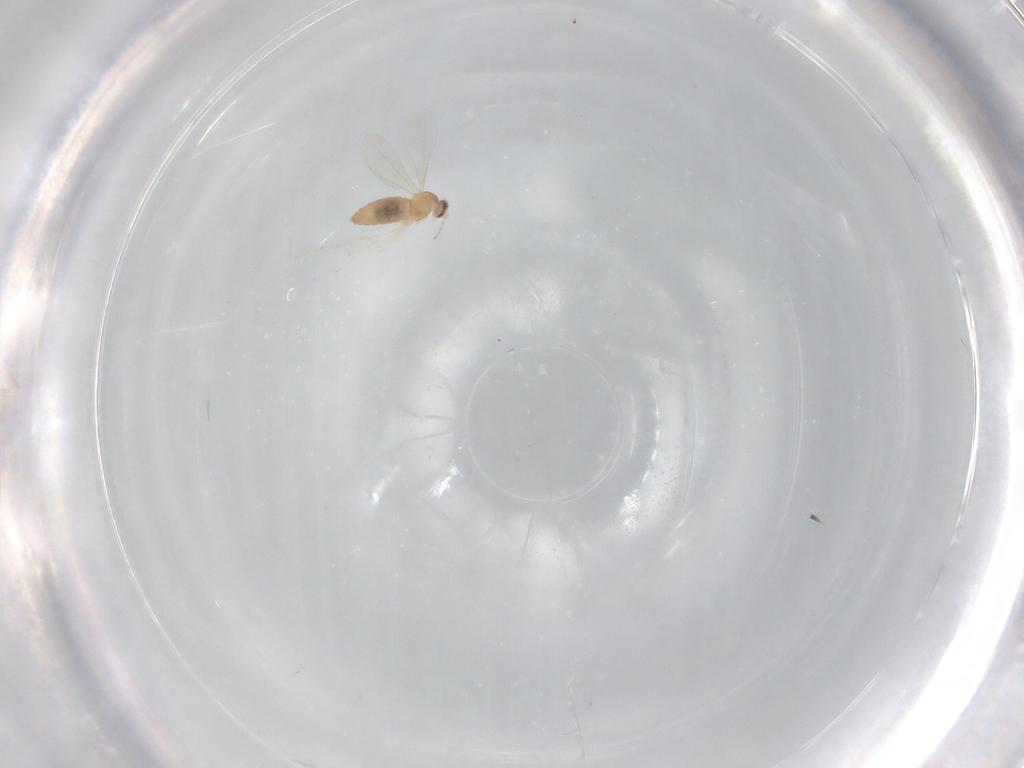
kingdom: Animalia
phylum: Arthropoda
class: Insecta
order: Diptera
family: Cecidomyiidae
